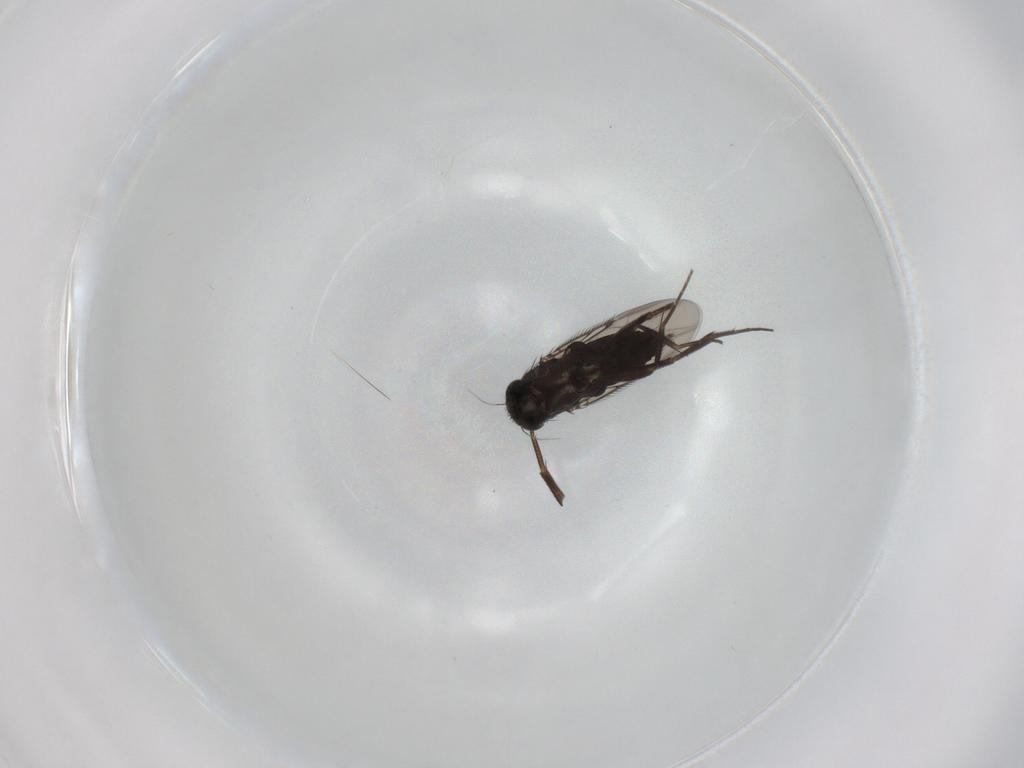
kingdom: Animalia
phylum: Arthropoda
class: Insecta
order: Diptera
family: Phoridae
